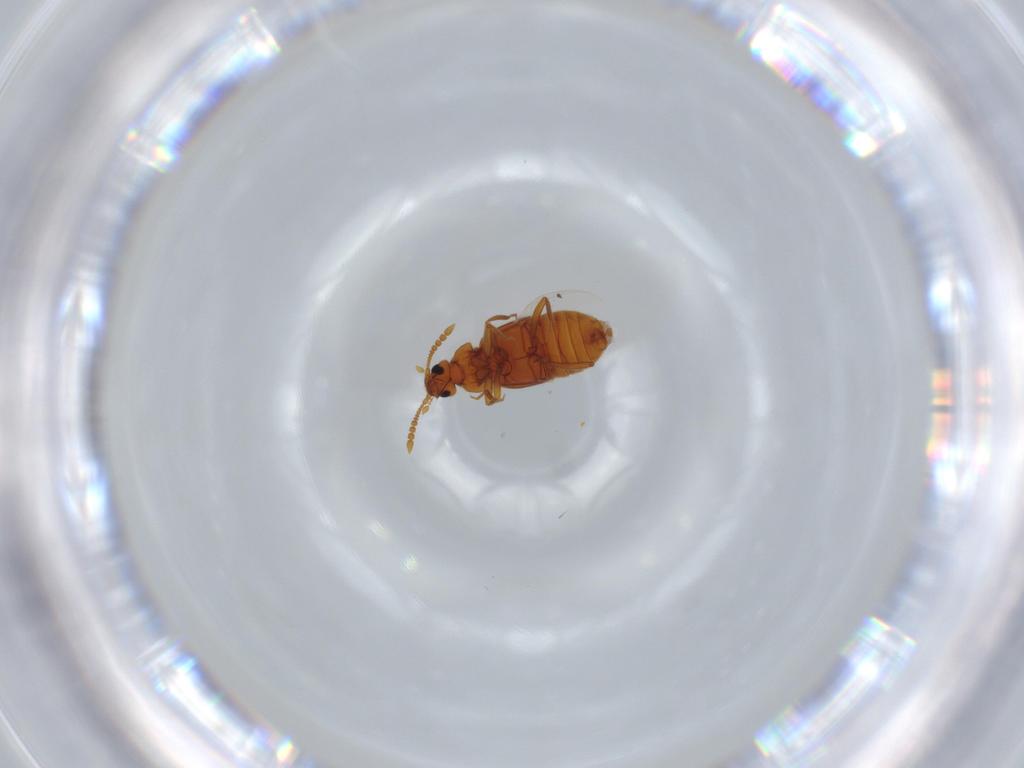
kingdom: Animalia
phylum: Arthropoda
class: Insecta
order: Coleoptera
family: Staphylinidae
